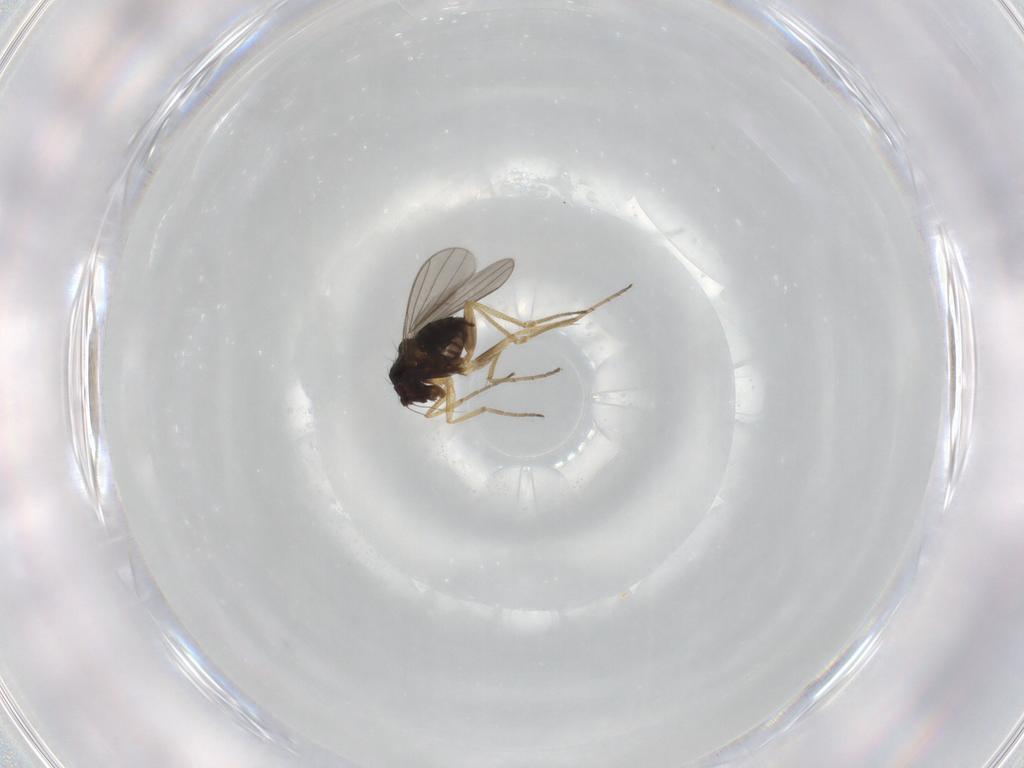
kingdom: Animalia
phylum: Arthropoda
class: Insecta
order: Diptera
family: Dolichopodidae
